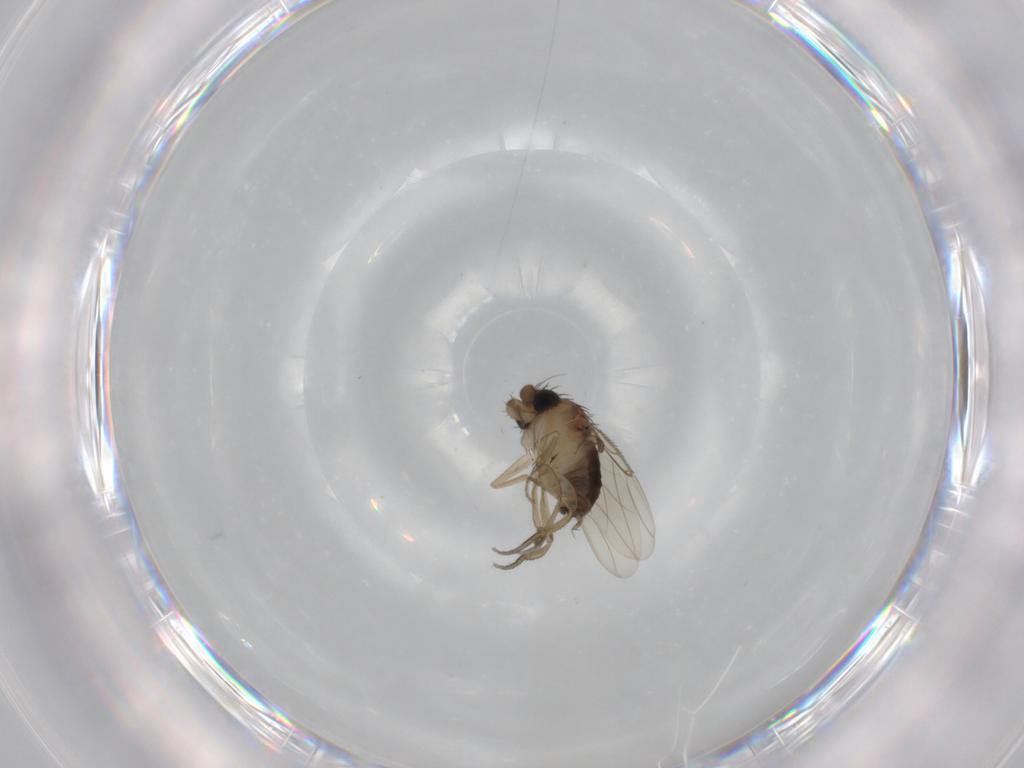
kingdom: Animalia
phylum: Arthropoda
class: Insecta
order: Diptera
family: Phoridae
